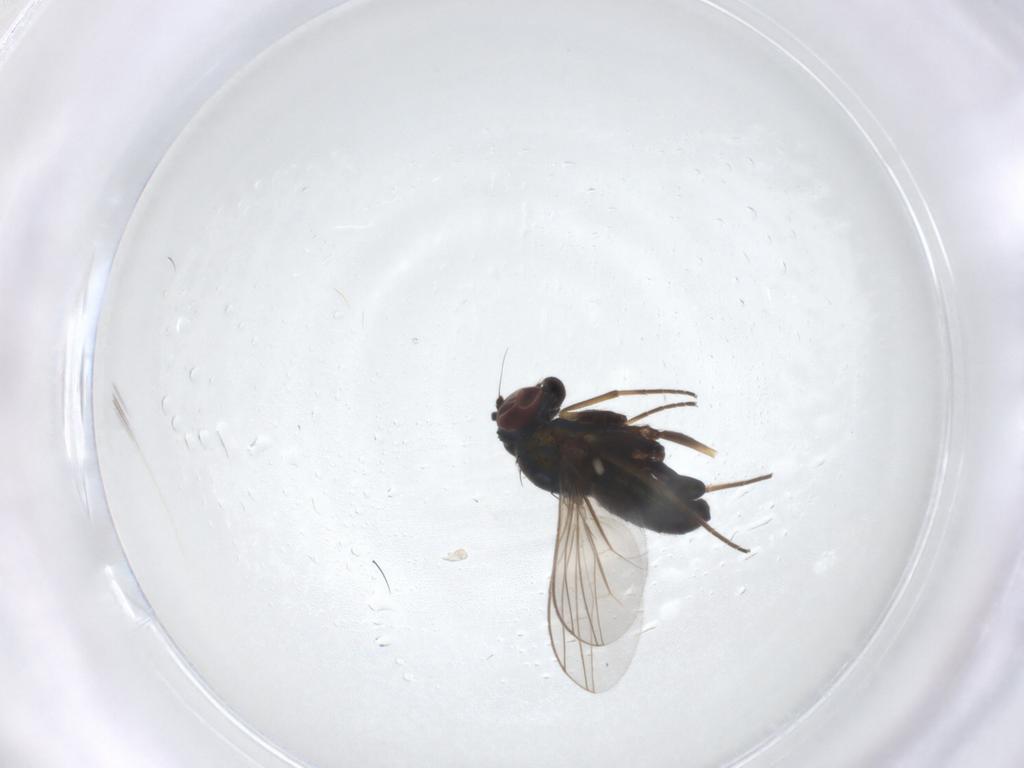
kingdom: Animalia
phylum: Arthropoda
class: Insecta
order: Diptera
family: Dolichopodidae
